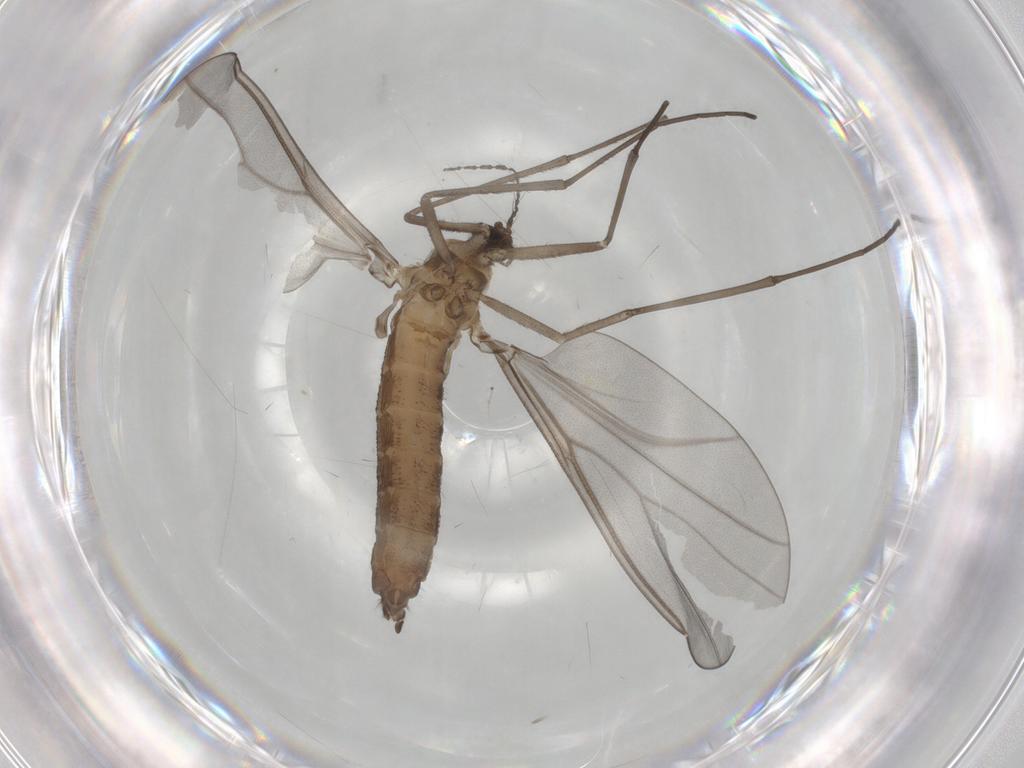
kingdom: Animalia
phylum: Arthropoda
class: Insecta
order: Diptera
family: Cecidomyiidae
